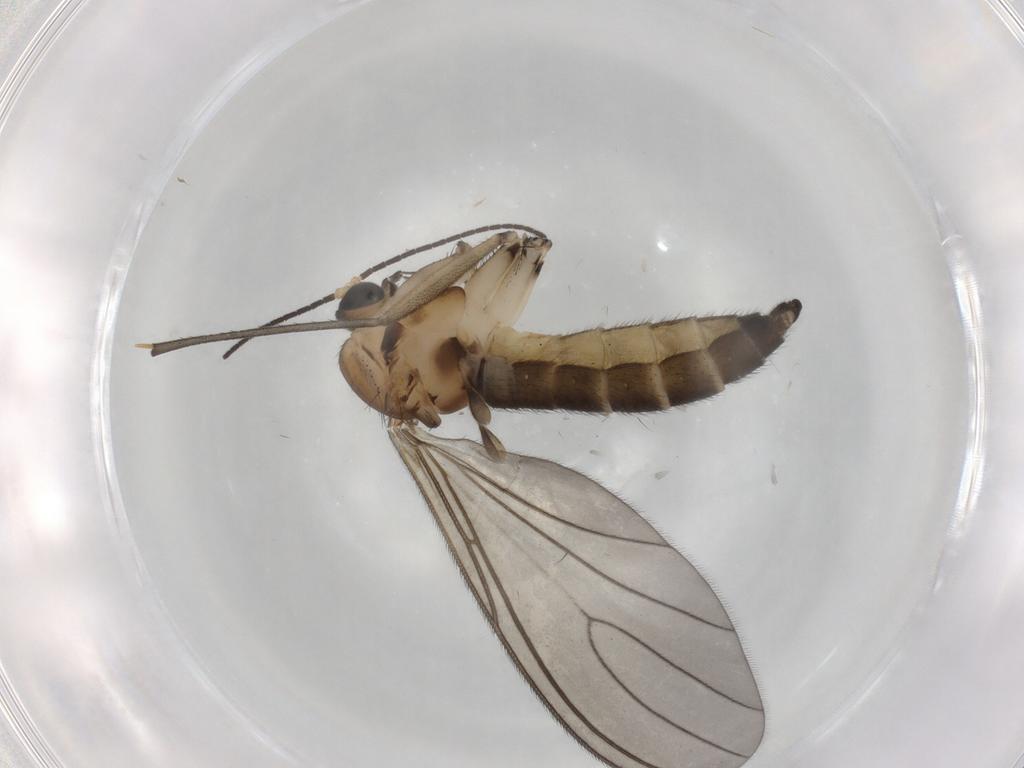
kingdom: Animalia
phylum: Arthropoda
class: Insecta
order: Diptera
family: Sciaridae
